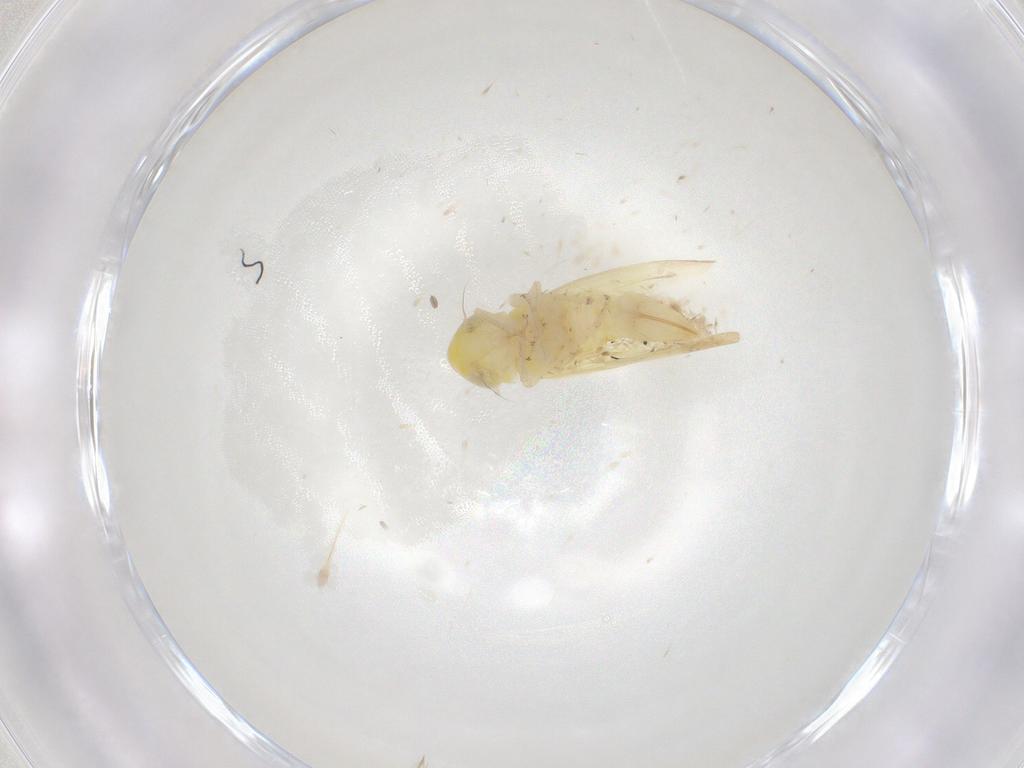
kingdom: Animalia
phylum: Arthropoda
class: Insecta
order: Hemiptera
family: Cicadellidae
